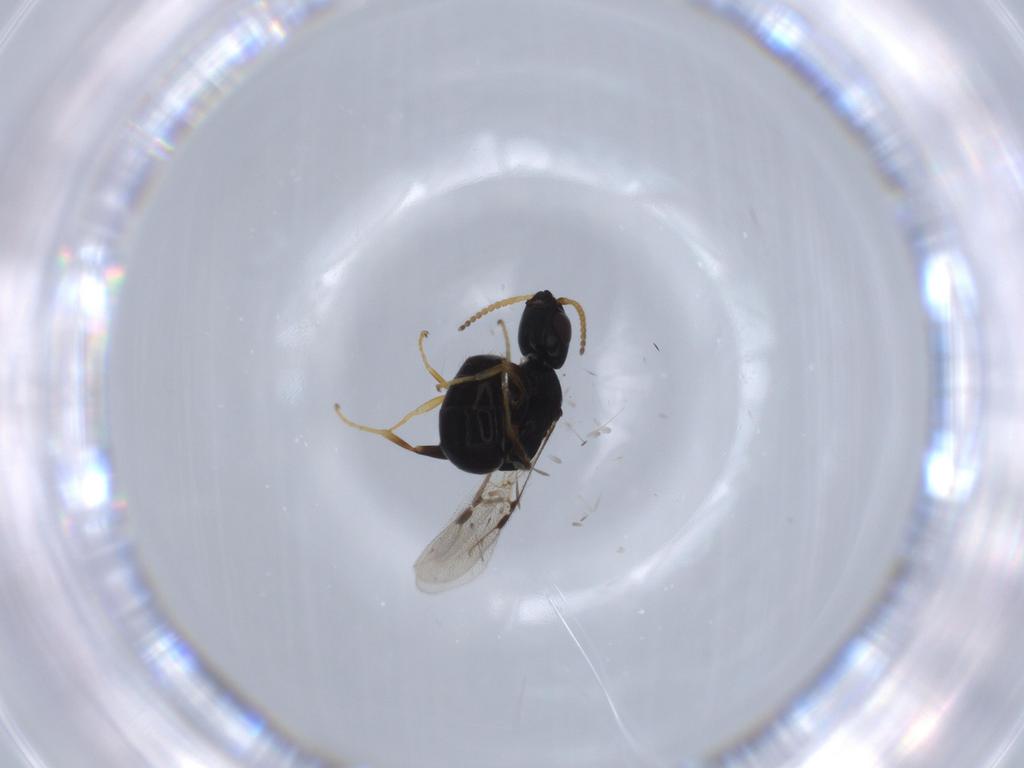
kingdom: Animalia
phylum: Arthropoda
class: Insecta
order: Hymenoptera
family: Bethylidae
